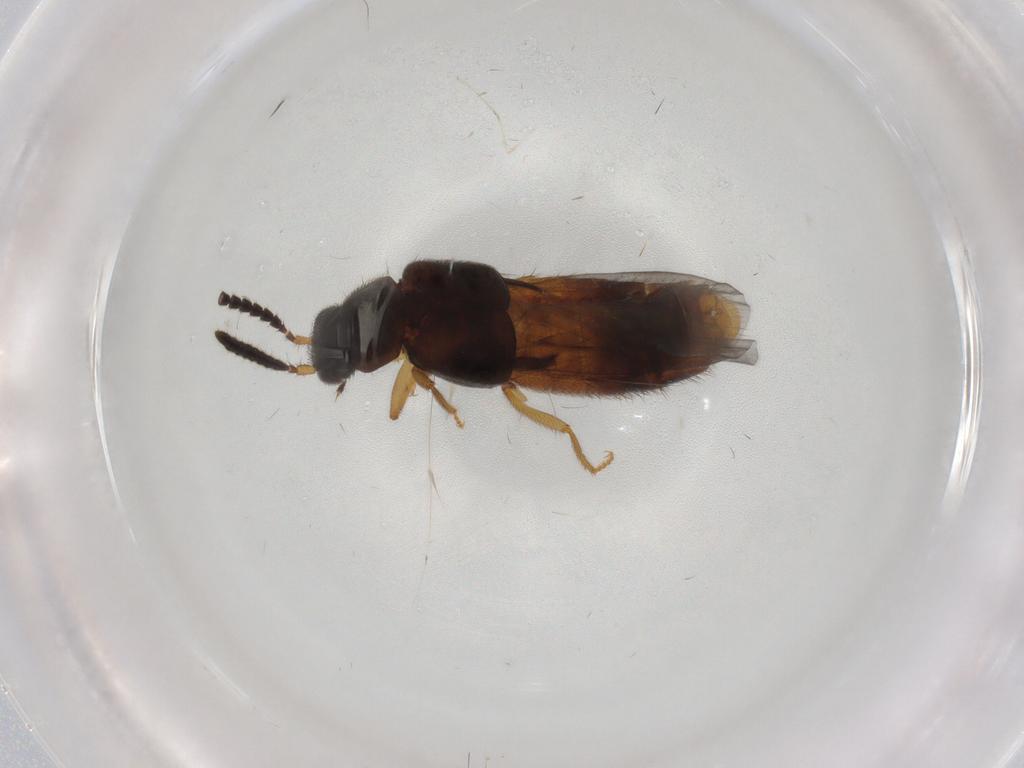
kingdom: Animalia
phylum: Arthropoda
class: Insecta
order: Coleoptera
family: Staphylinidae
